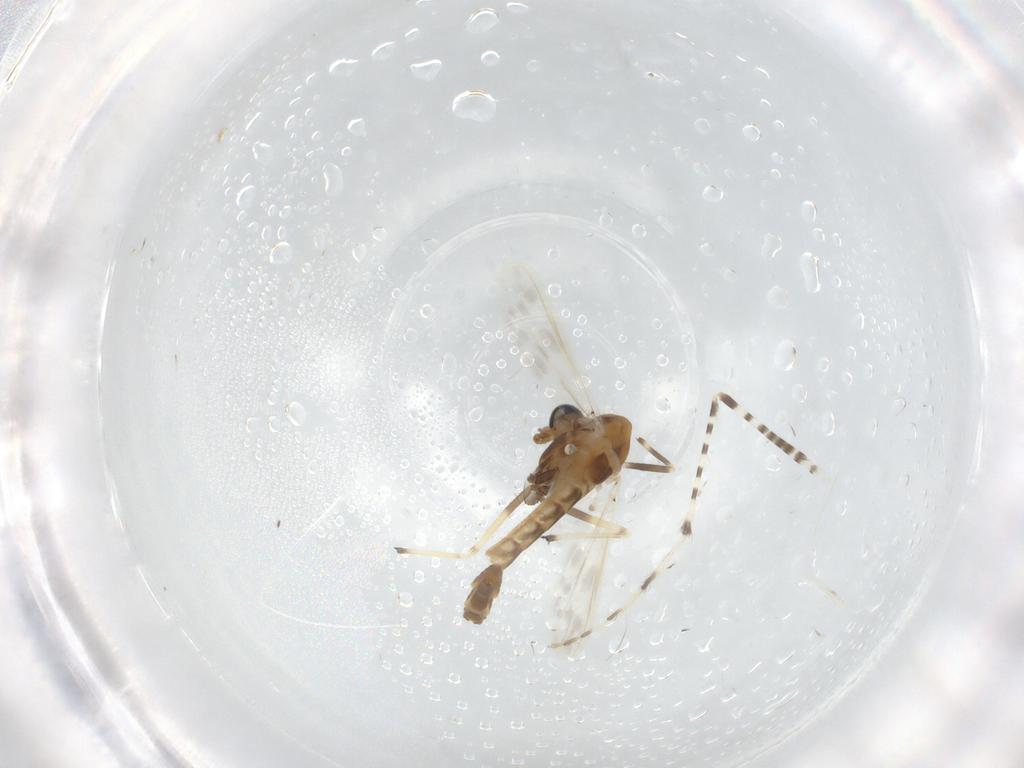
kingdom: Animalia
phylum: Arthropoda
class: Insecta
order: Diptera
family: Chironomidae
